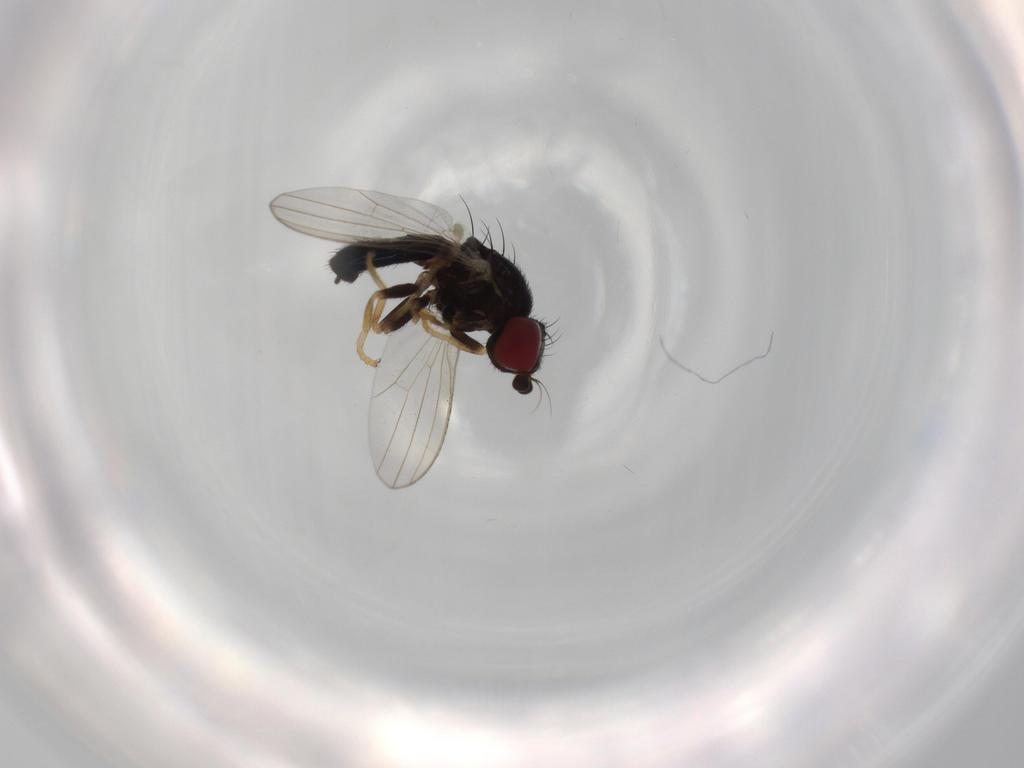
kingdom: Animalia
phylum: Arthropoda
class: Insecta
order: Diptera
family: Chamaemyiidae
